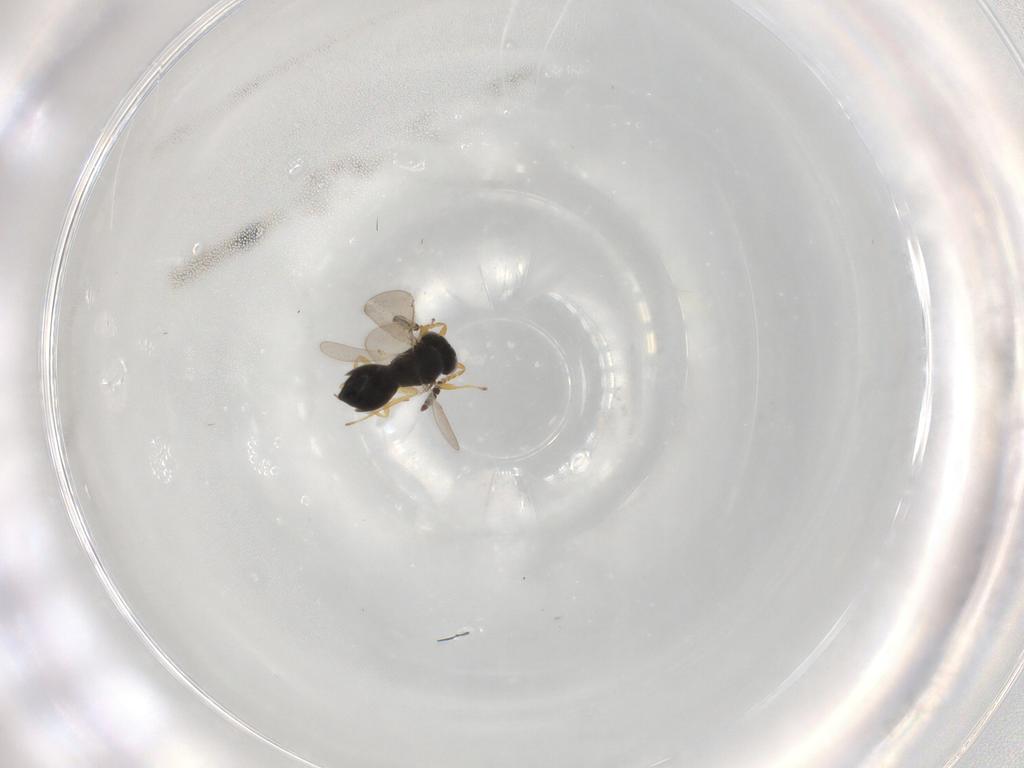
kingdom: Animalia
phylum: Arthropoda
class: Insecta
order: Hymenoptera
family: Scelionidae
